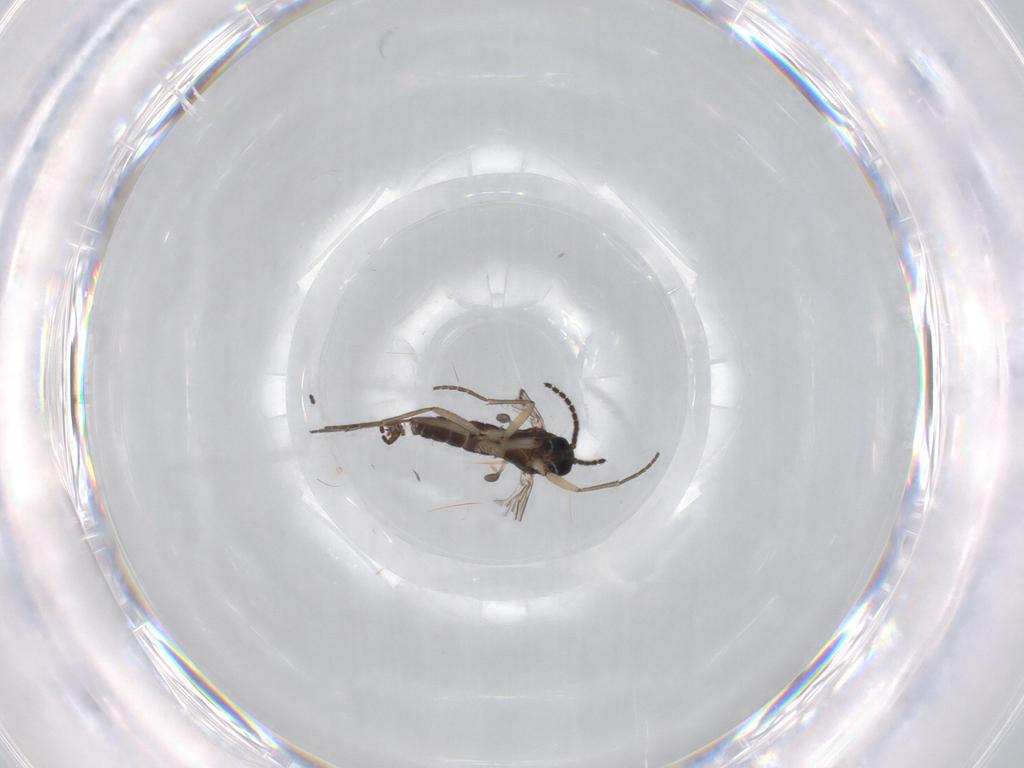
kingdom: Animalia
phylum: Arthropoda
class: Insecta
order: Diptera
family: Sciaridae
